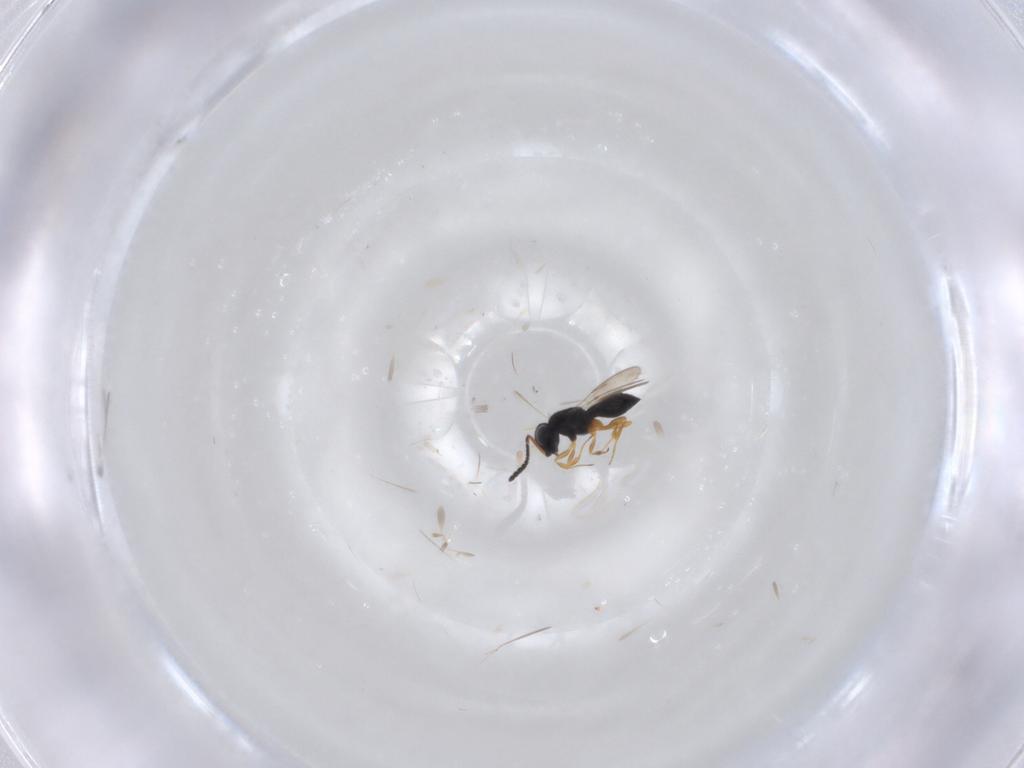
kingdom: Animalia
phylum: Arthropoda
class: Insecta
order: Hymenoptera
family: Scelionidae
